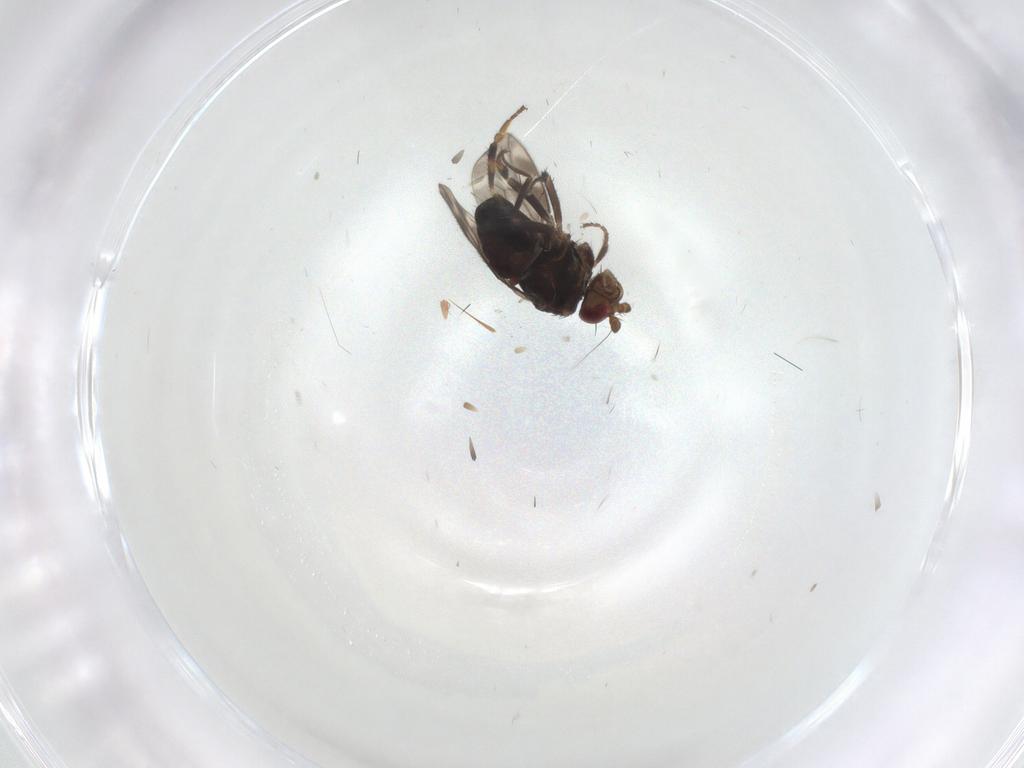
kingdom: Animalia
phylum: Arthropoda
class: Insecta
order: Diptera
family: Sphaeroceridae
